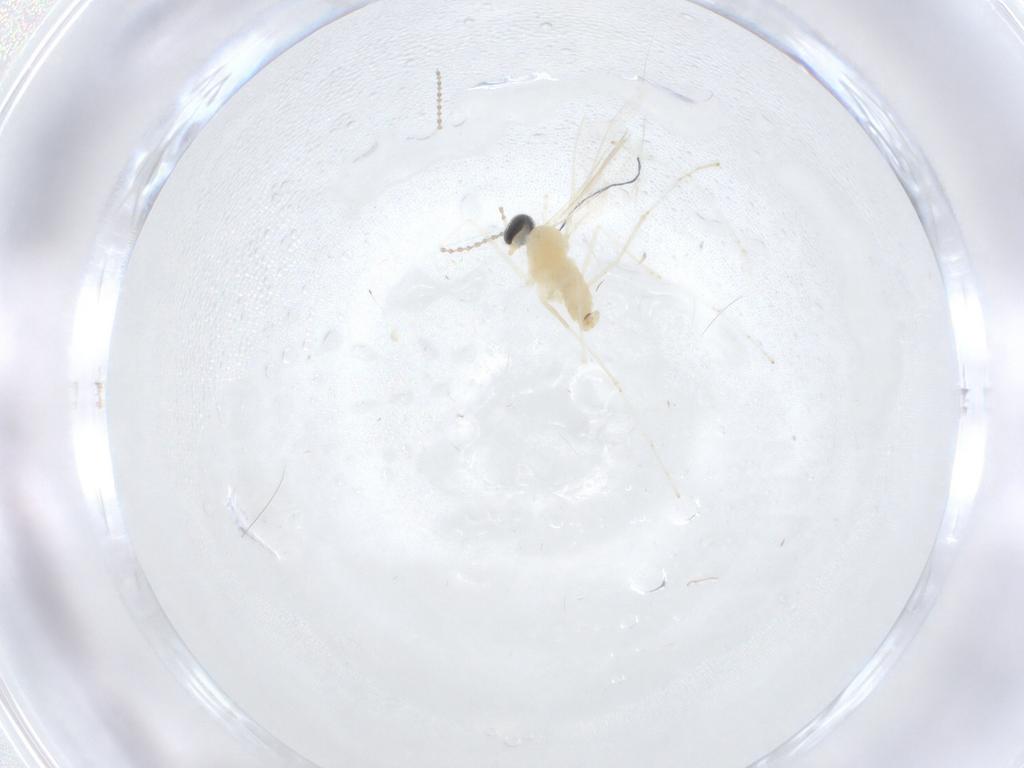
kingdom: Animalia
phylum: Arthropoda
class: Insecta
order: Diptera
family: Cecidomyiidae
